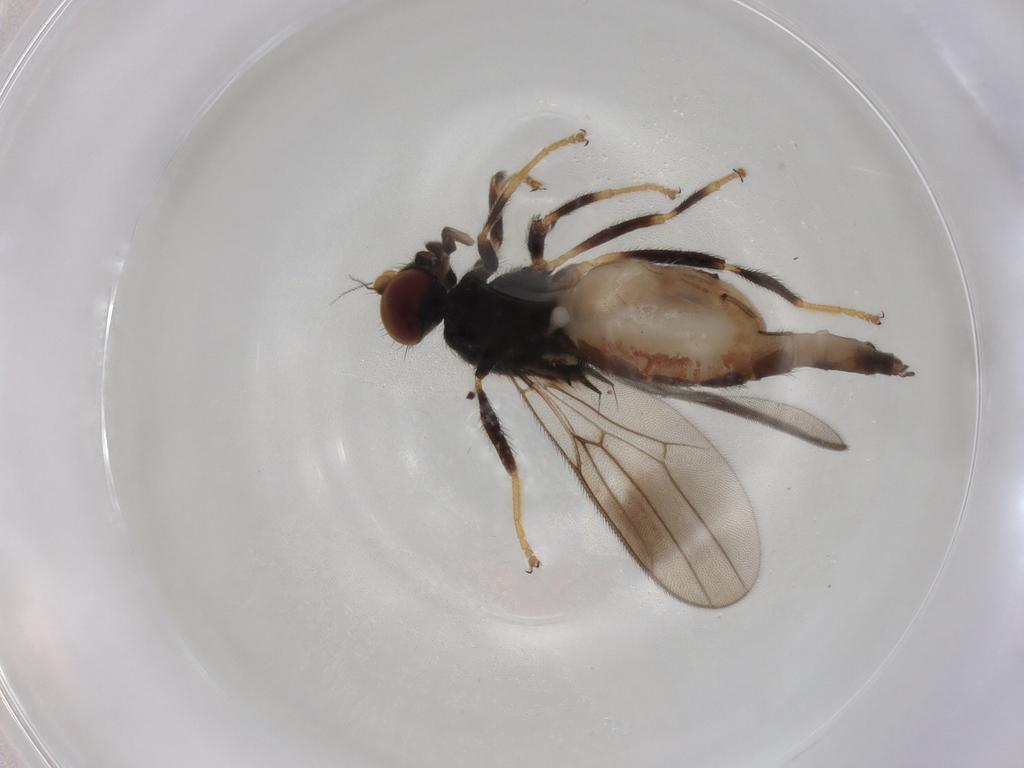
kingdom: Animalia
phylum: Arthropoda
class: Insecta
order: Diptera
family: Chloropidae
